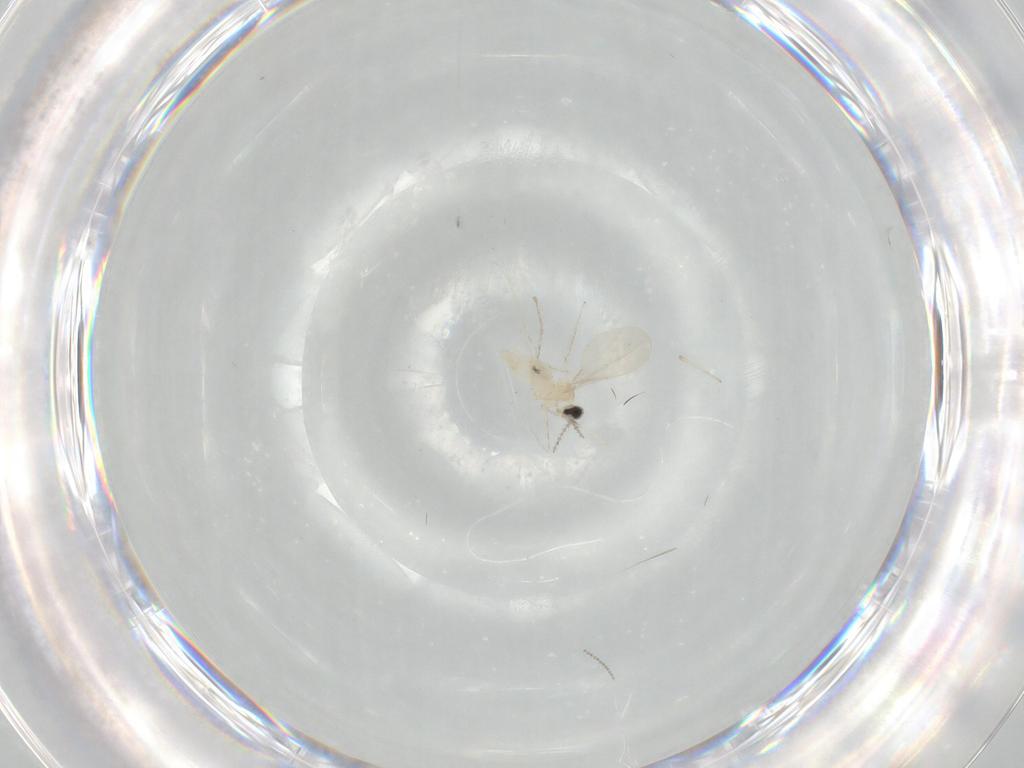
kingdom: Animalia
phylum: Arthropoda
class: Insecta
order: Diptera
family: Cecidomyiidae
